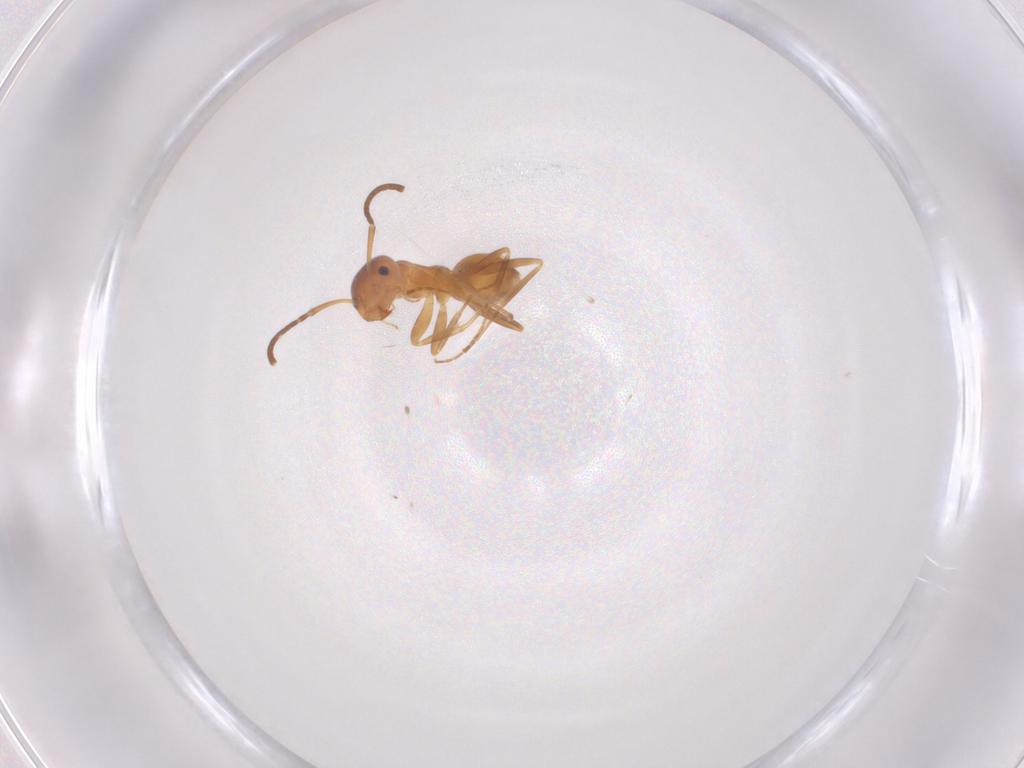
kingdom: Animalia
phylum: Arthropoda
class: Insecta
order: Hymenoptera
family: Formicidae
